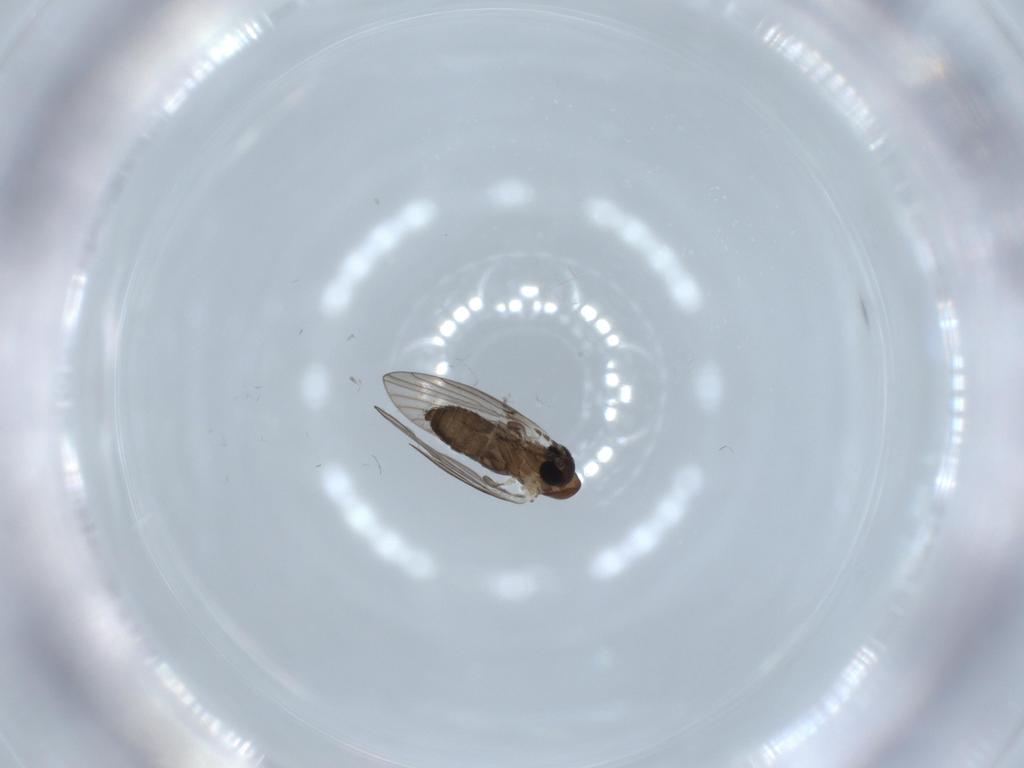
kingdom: Animalia
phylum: Arthropoda
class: Insecta
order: Diptera
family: Psychodidae
